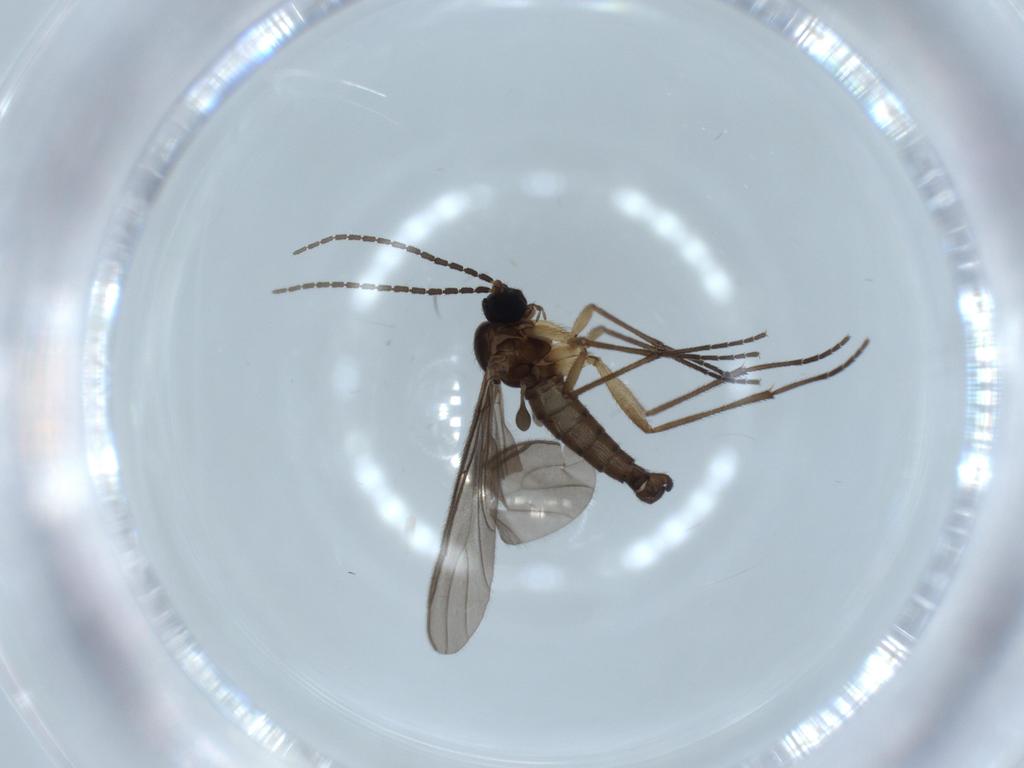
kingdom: Animalia
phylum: Arthropoda
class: Insecta
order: Diptera
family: Sciaridae
